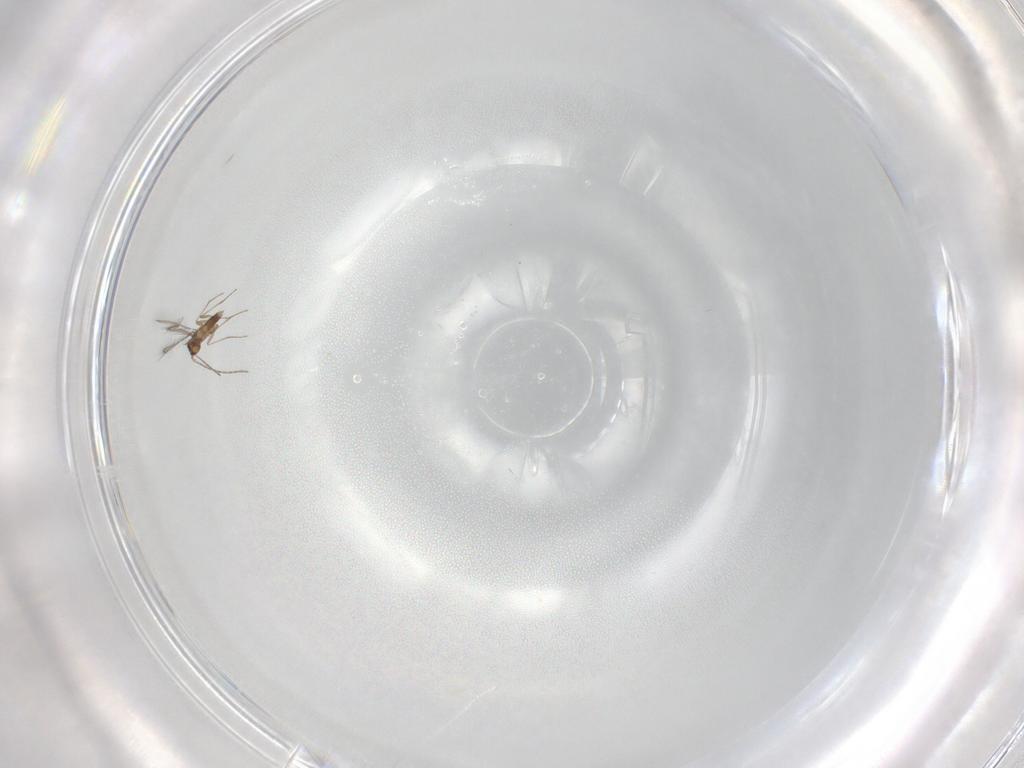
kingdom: Animalia
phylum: Arthropoda
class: Insecta
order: Hymenoptera
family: Mymaridae
